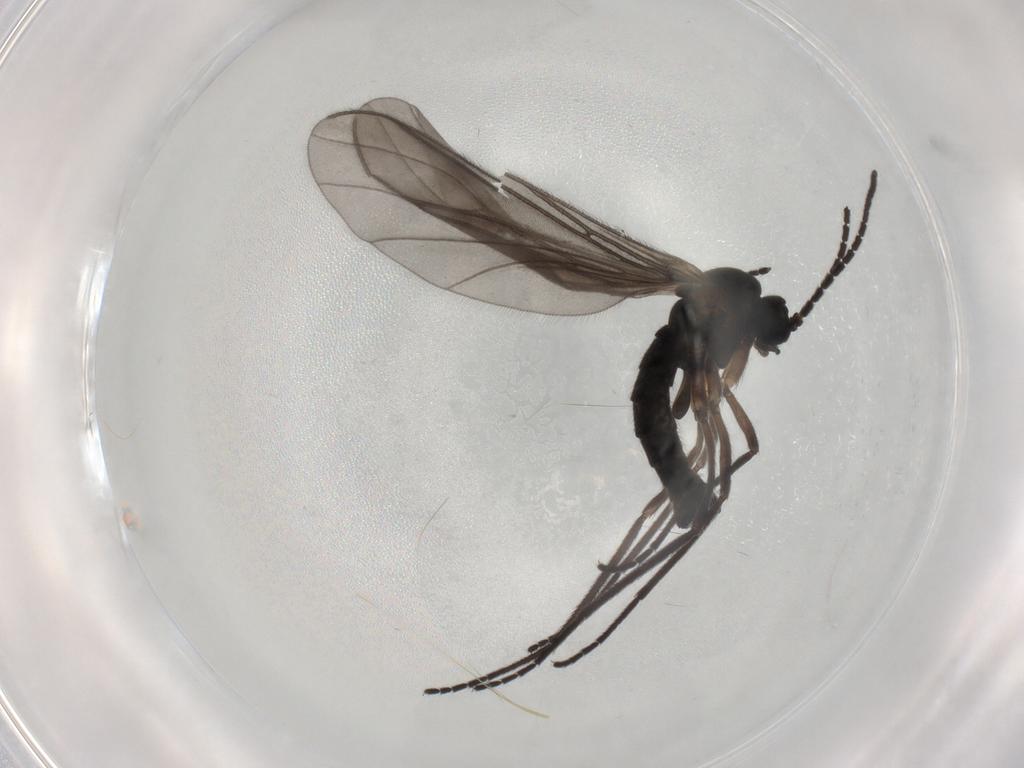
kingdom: Animalia
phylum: Arthropoda
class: Insecta
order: Diptera
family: Sciaridae
